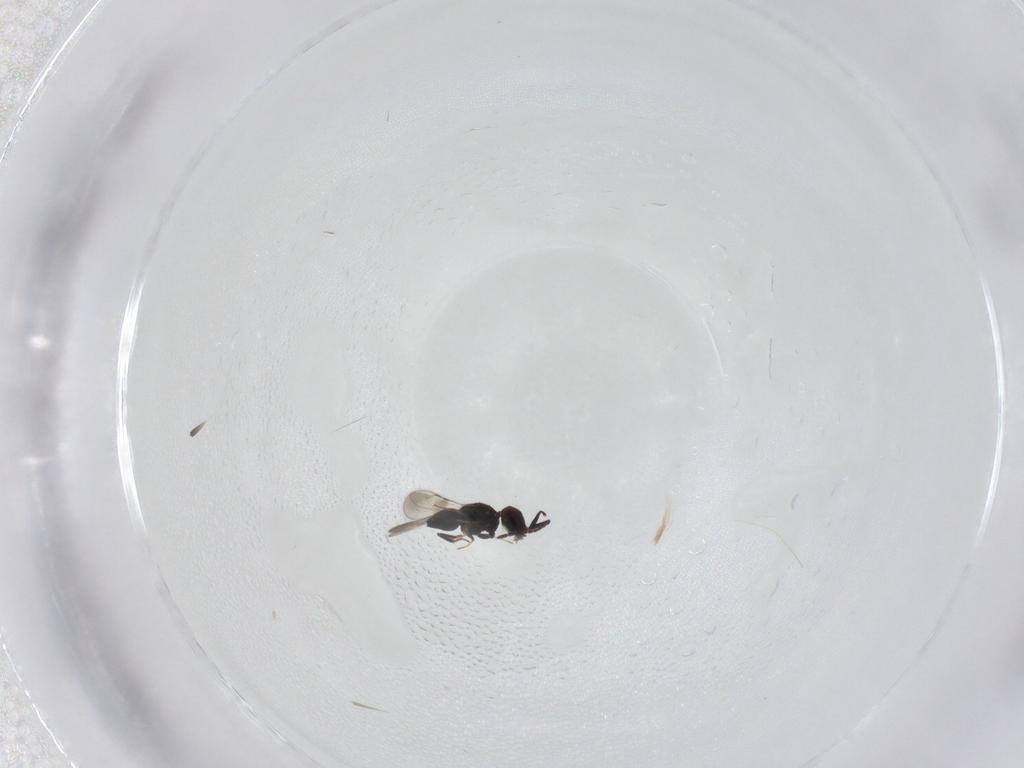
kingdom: Animalia
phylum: Arthropoda
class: Insecta
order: Hymenoptera
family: Ceraphronidae
